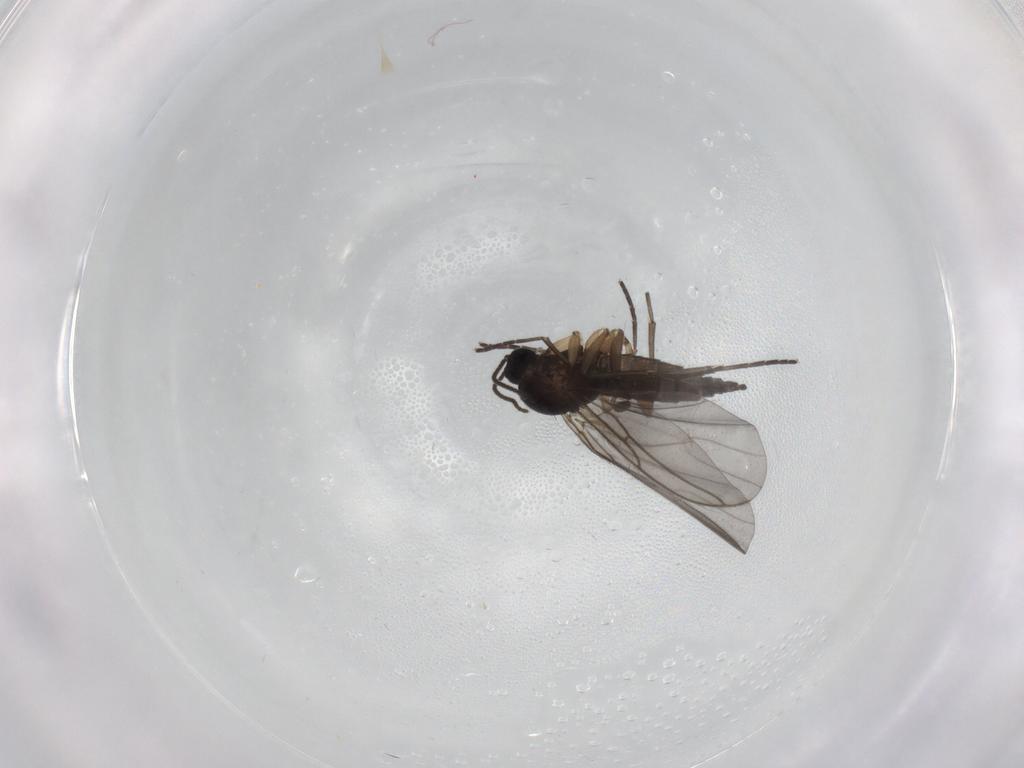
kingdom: Animalia
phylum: Arthropoda
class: Insecta
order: Diptera
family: Sciaridae
